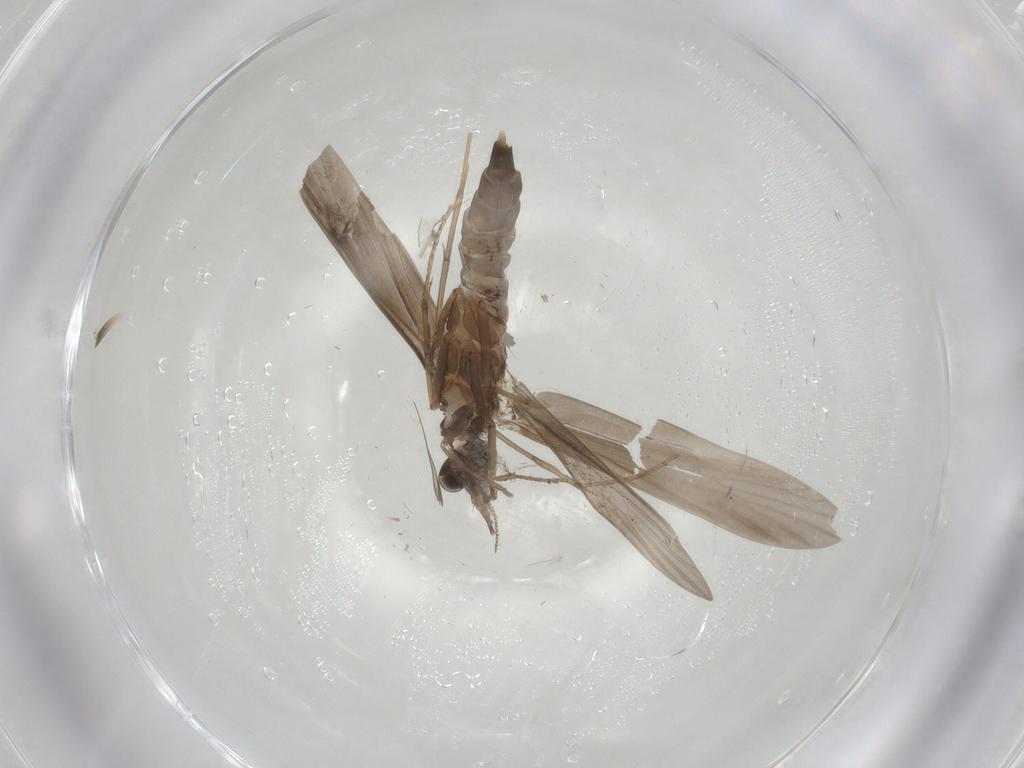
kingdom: Animalia
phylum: Arthropoda
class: Insecta
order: Trichoptera
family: Xiphocentronidae
